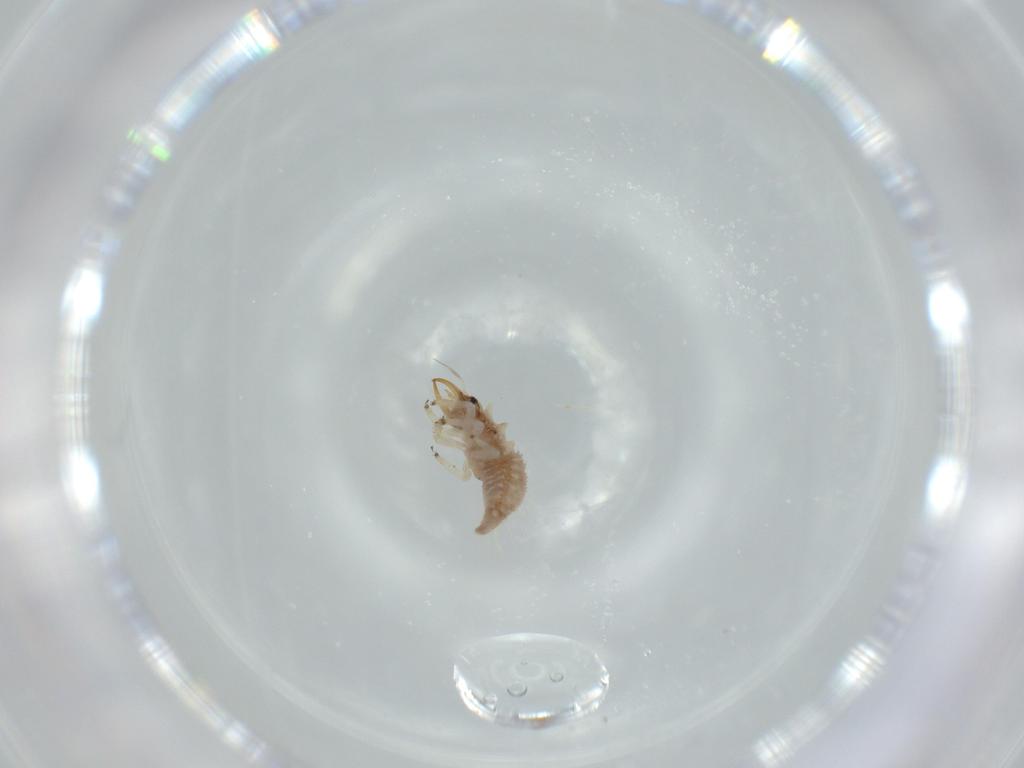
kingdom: Animalia
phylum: Arthropoda
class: Insecta
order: Neuroptera
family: Chrysopidae
